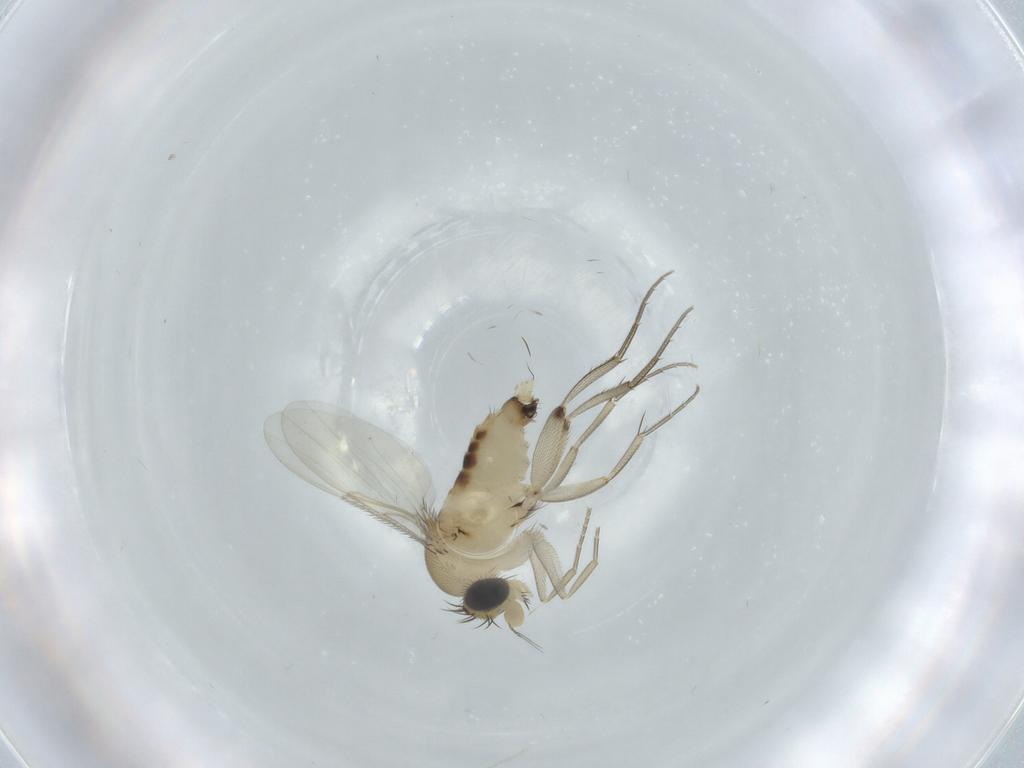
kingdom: Animalia
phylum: Arthropoda
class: Insecta
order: Diptera
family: Phoridae
